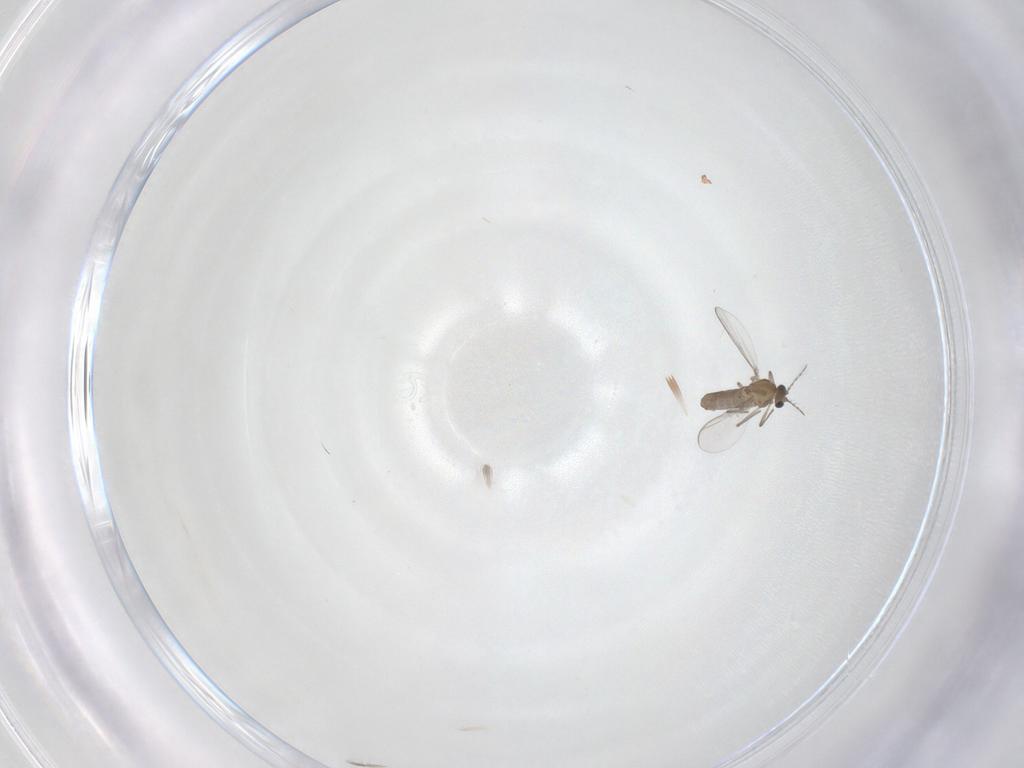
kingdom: Animalia
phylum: Arthropoda
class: Insecta
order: Diptera
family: Chironomidae
